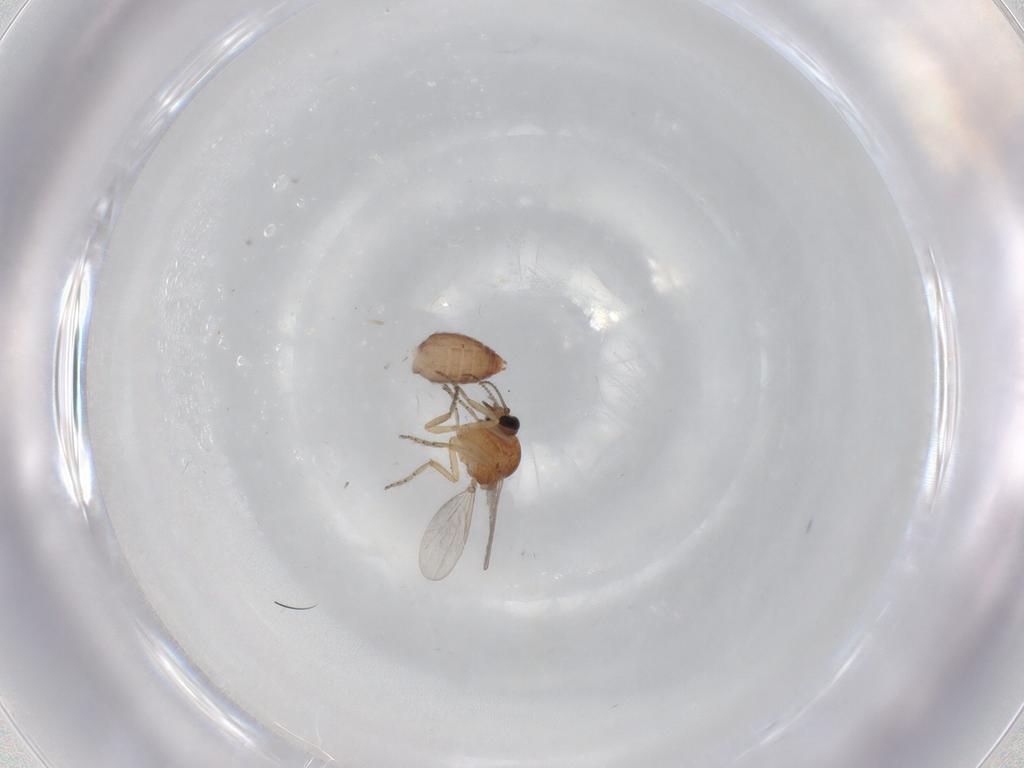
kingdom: Animalia
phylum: Arthropoda
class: Insecta
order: Diptera
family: Ceratopogonidae
